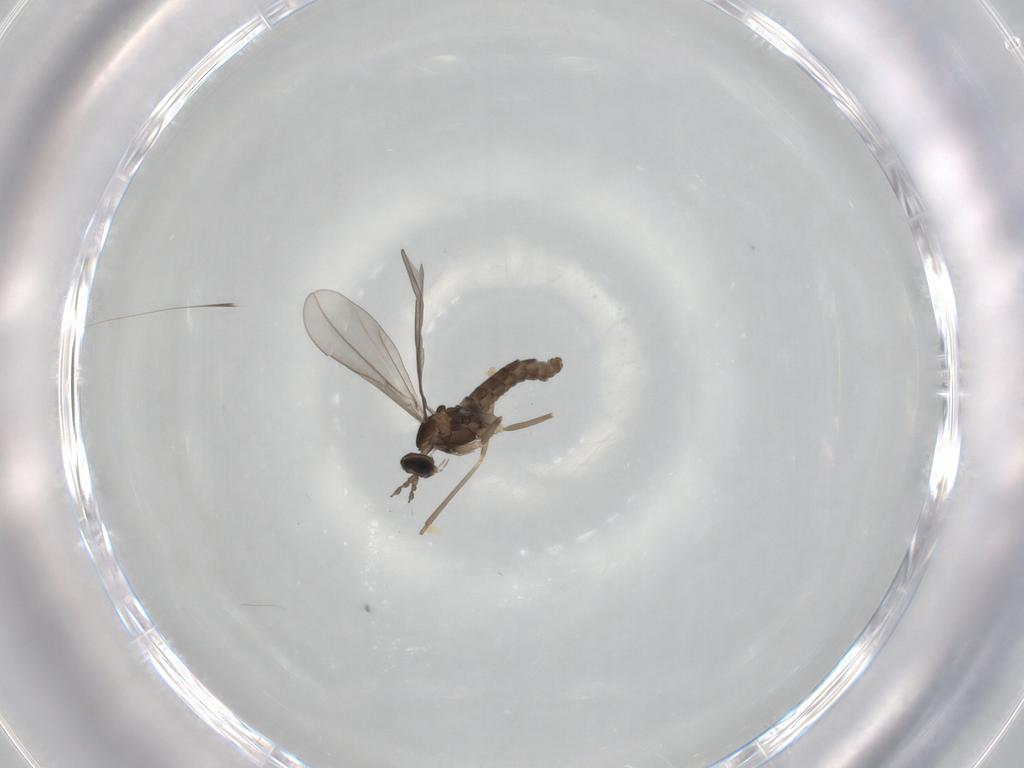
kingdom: Animalia
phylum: Arthropoda
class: Insecta
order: Diptera
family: Cecidomyiidae
